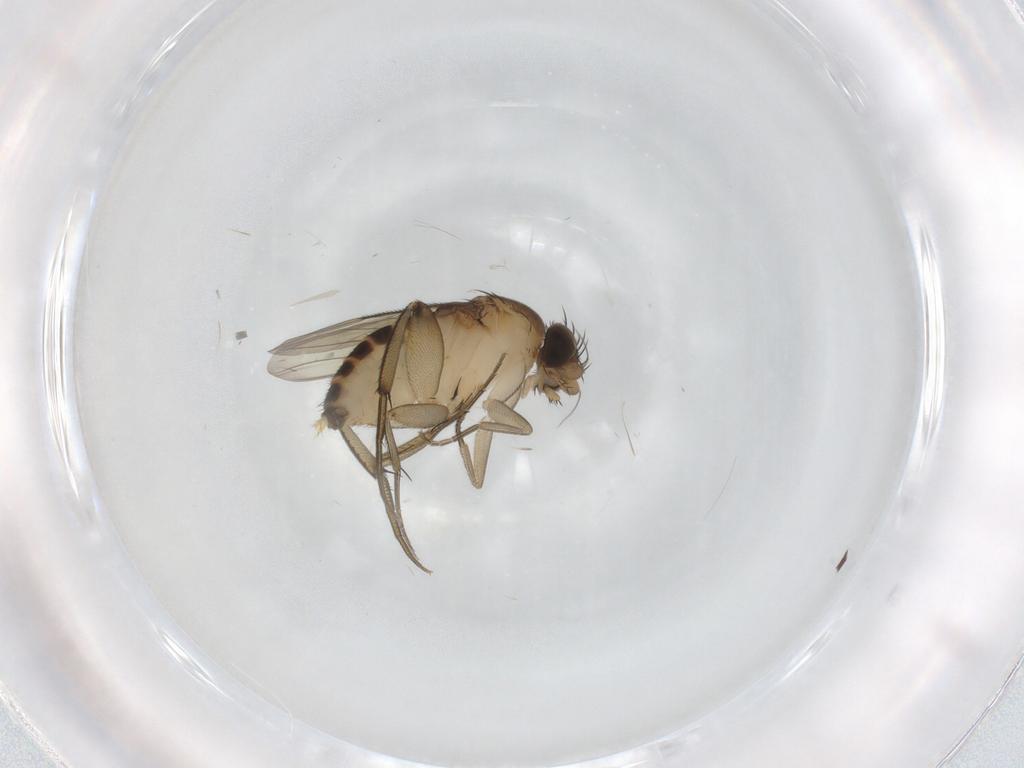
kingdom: Animalia
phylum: Arthropoda
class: Insecta
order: Diptera
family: Phoridae
